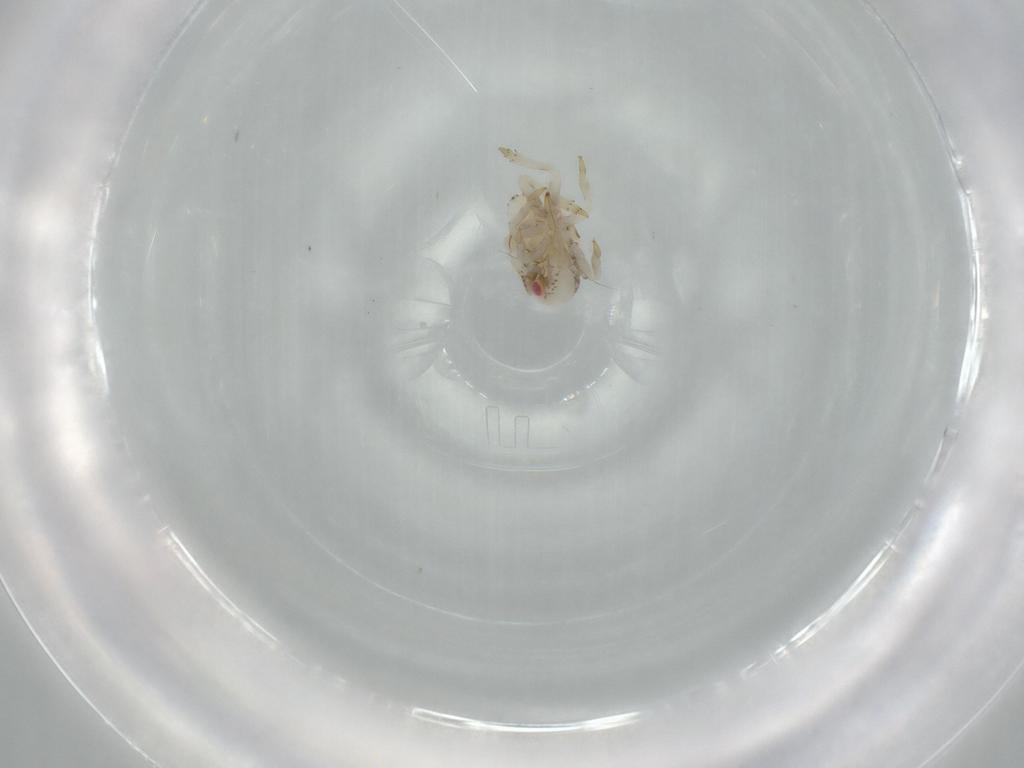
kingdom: Animalia
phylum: Arthropoda
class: Insecta
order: Hemiptera
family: Acanaloniidae
